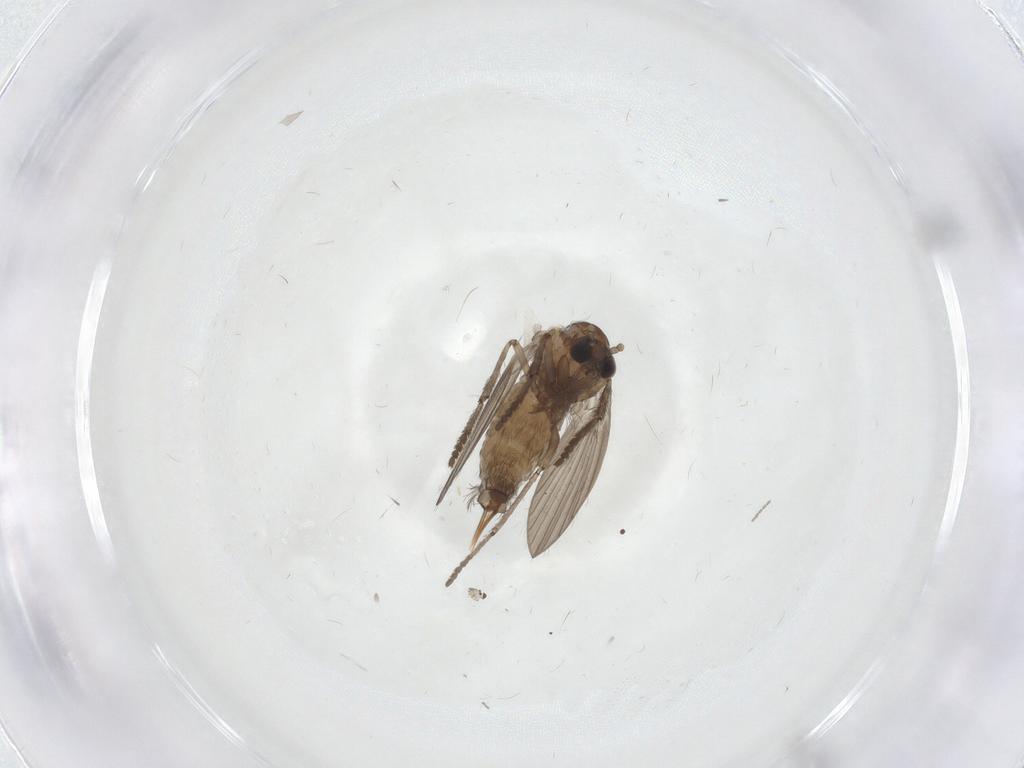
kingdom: Animalia
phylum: Arthropoda
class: Insecta
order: Diptera
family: Psychodidae
